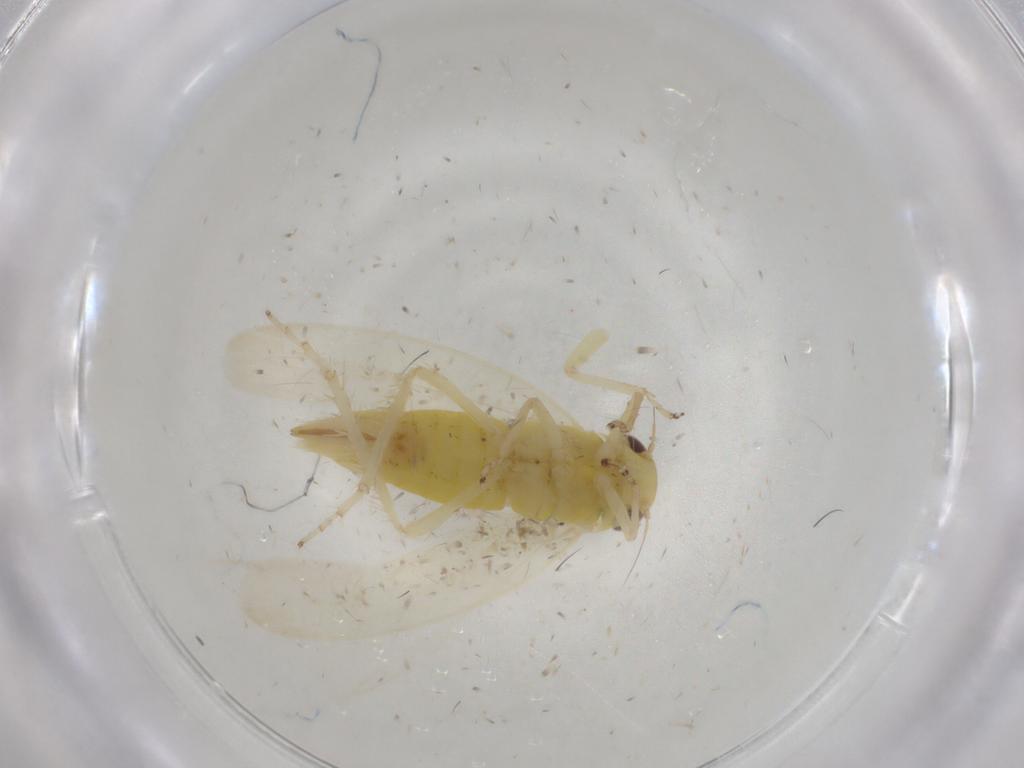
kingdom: Animalia
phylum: Arthropoda
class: Insecta
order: Hemiptera
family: Cicadellidae
